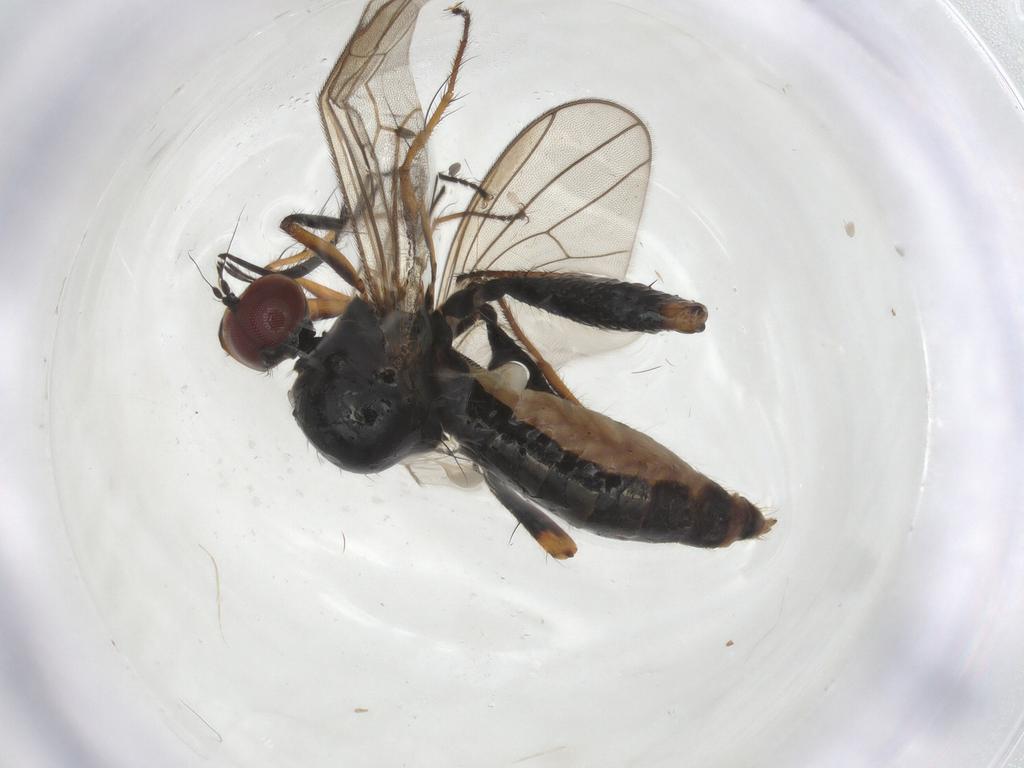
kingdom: Animalia
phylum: Arthropoda
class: Insecta
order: Diptera
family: Hybotidae
